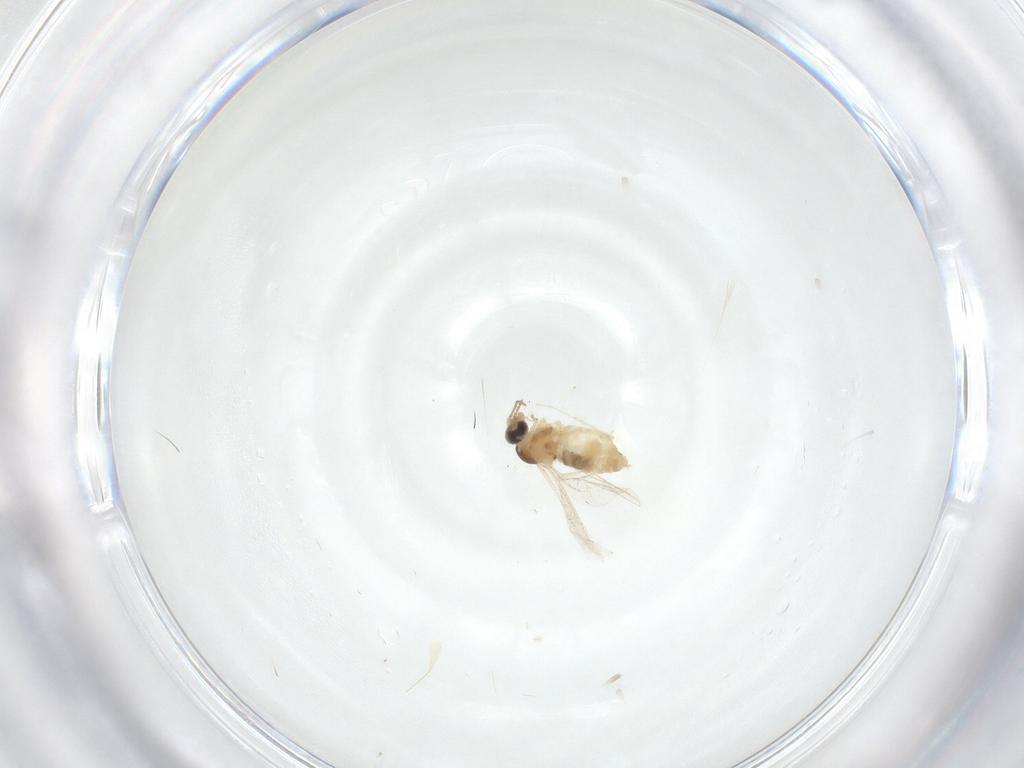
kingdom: Animalia
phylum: Arthropoda
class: Insecta
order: Diptera
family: Cecidomyiidae
